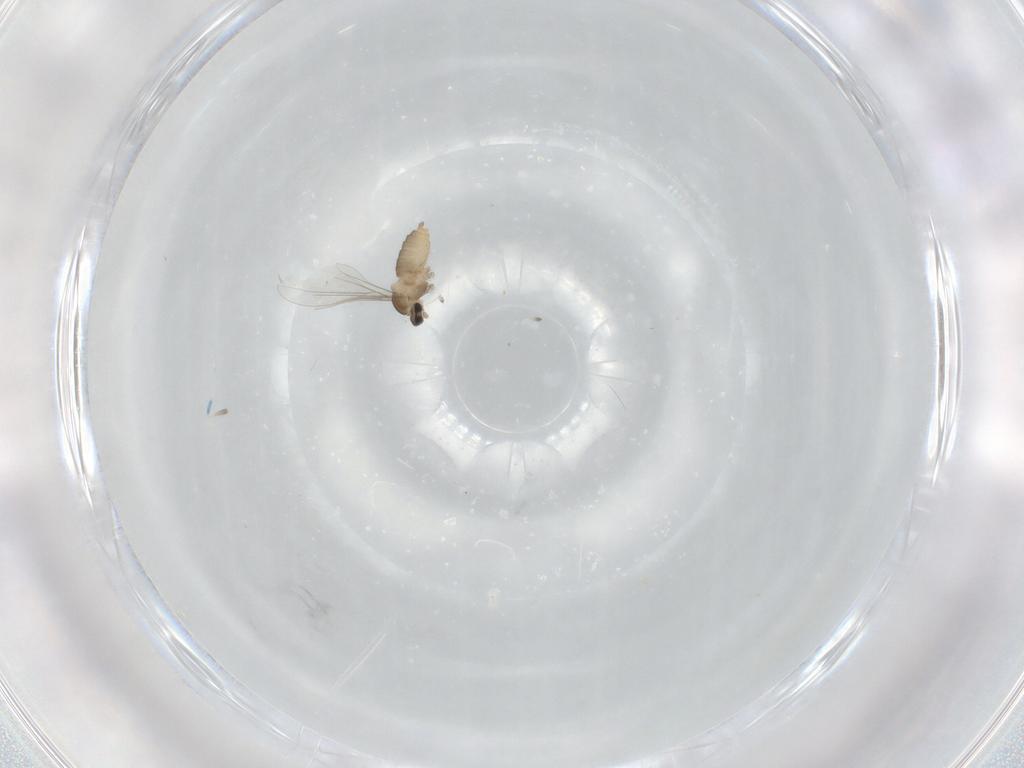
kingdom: Animalia
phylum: Arthropoda
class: Insecta
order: Diptera
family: Cecidomyiidae
